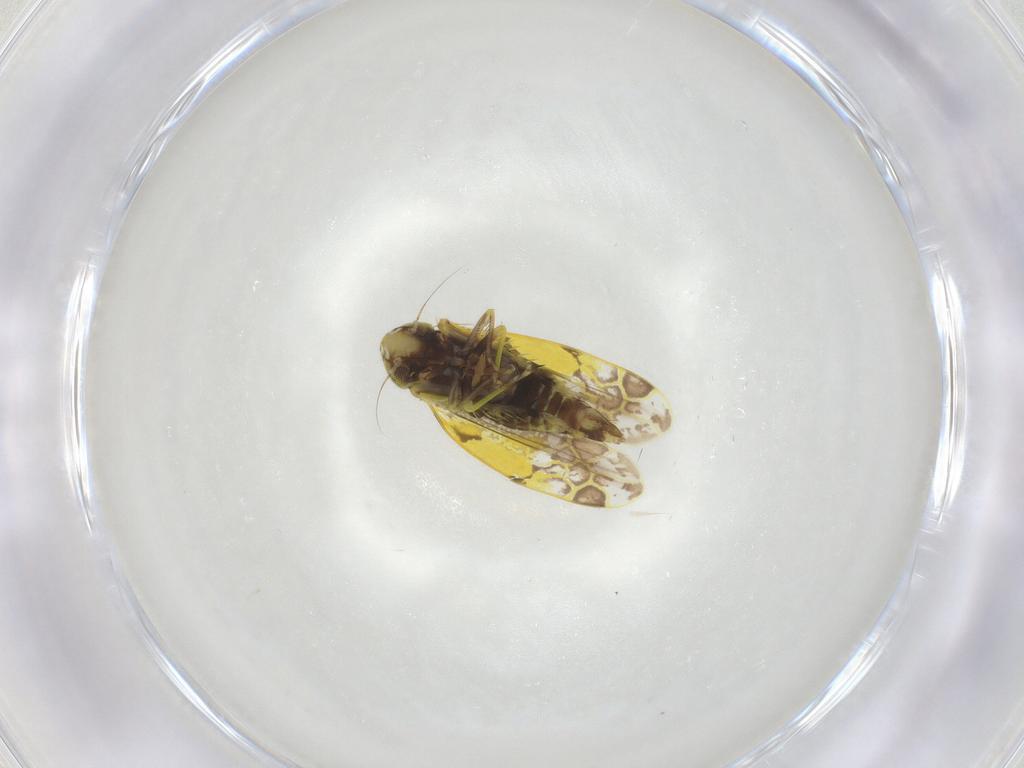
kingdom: Animalia
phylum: Arthropoda
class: Insecta
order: Hemiptera
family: Cicadellidae
